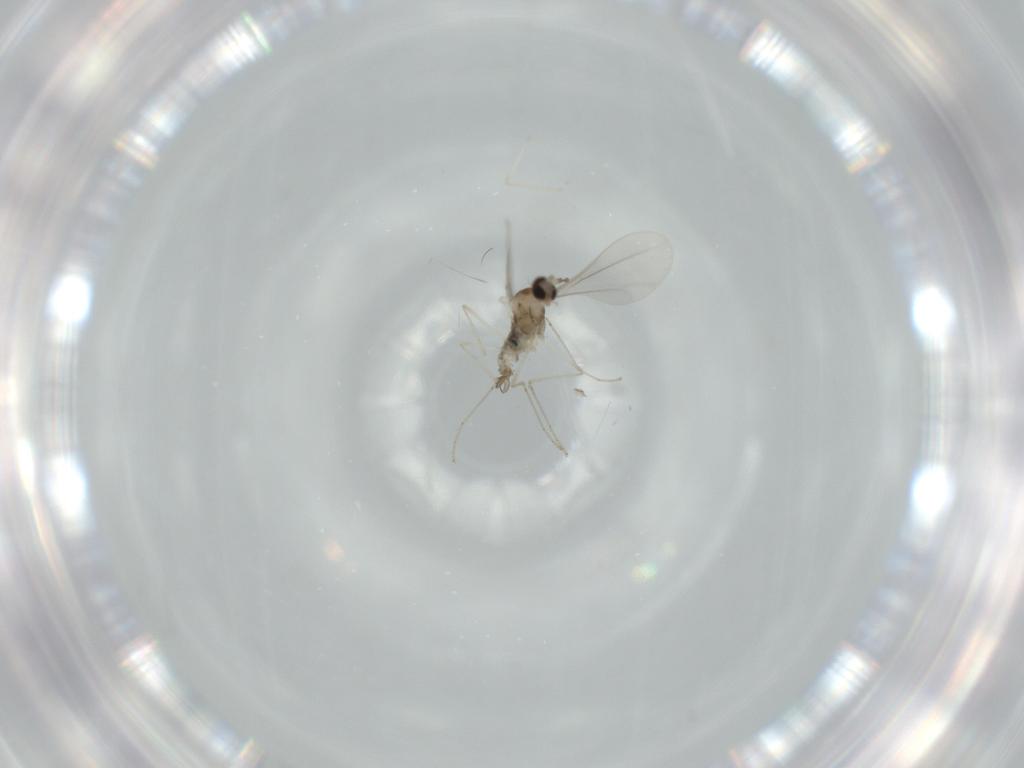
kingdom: Animalia
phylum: Arthropoda
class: Insecta
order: Diptera
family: Cecidomyiidae
